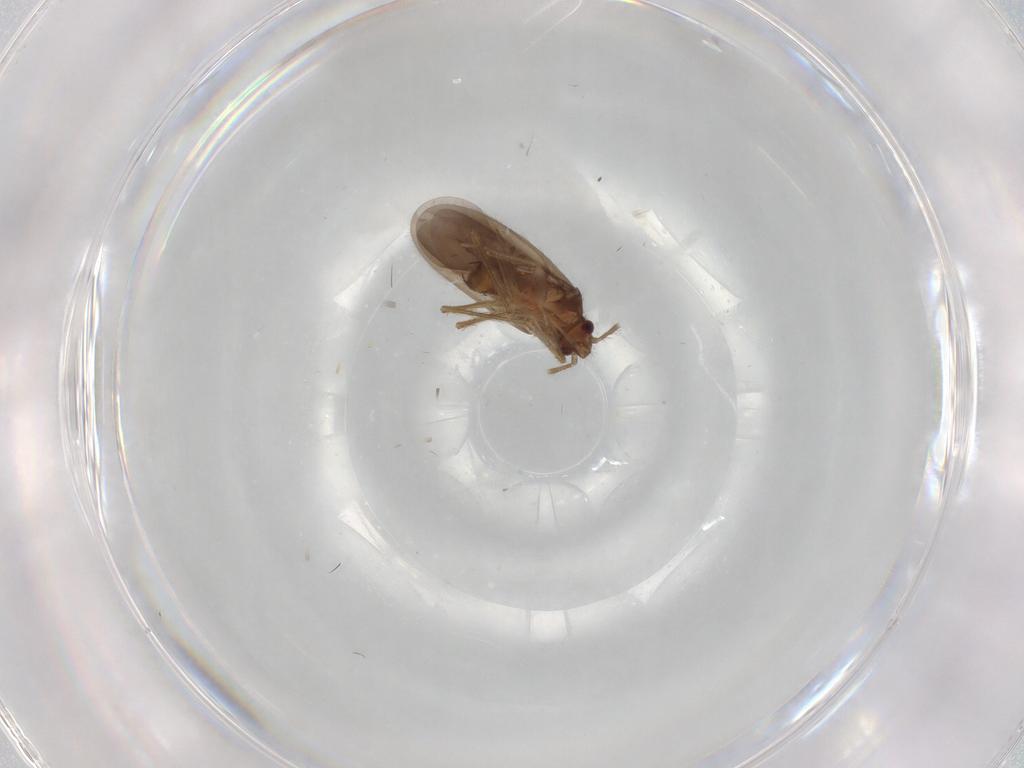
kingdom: Animalia
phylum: Arthropoda
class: Insecta
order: Hemiptera
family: Ceratocombidae
